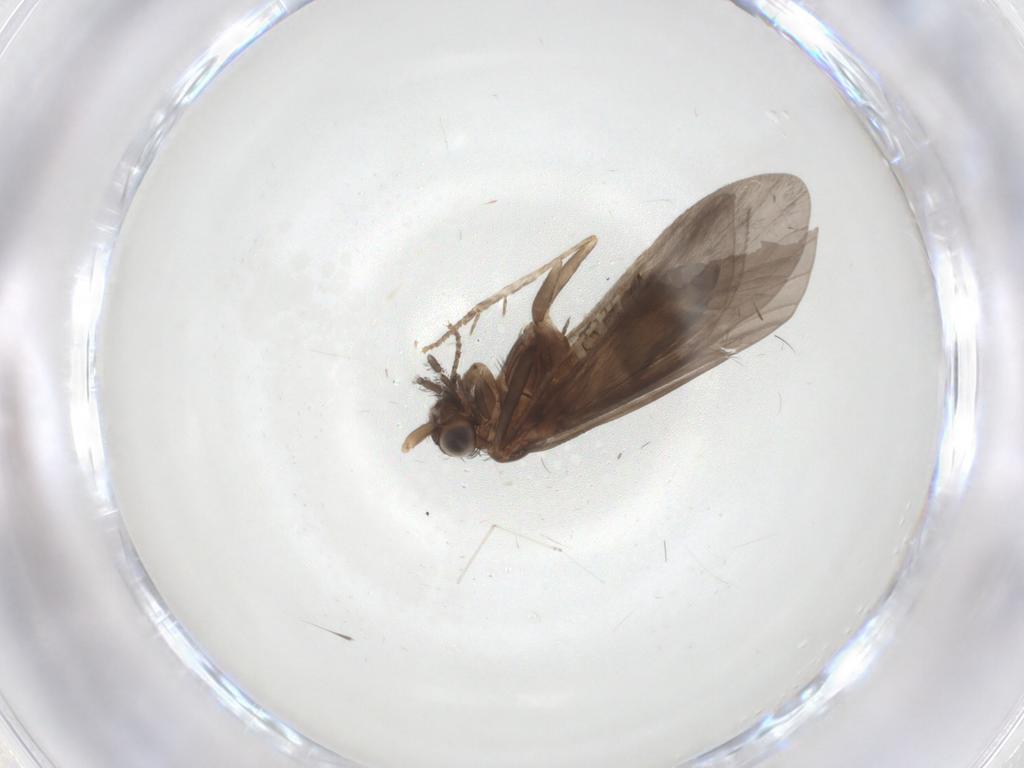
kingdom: Animalia
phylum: Arthropoda
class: Insecta
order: Trichoptera
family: Helicopsychidae
